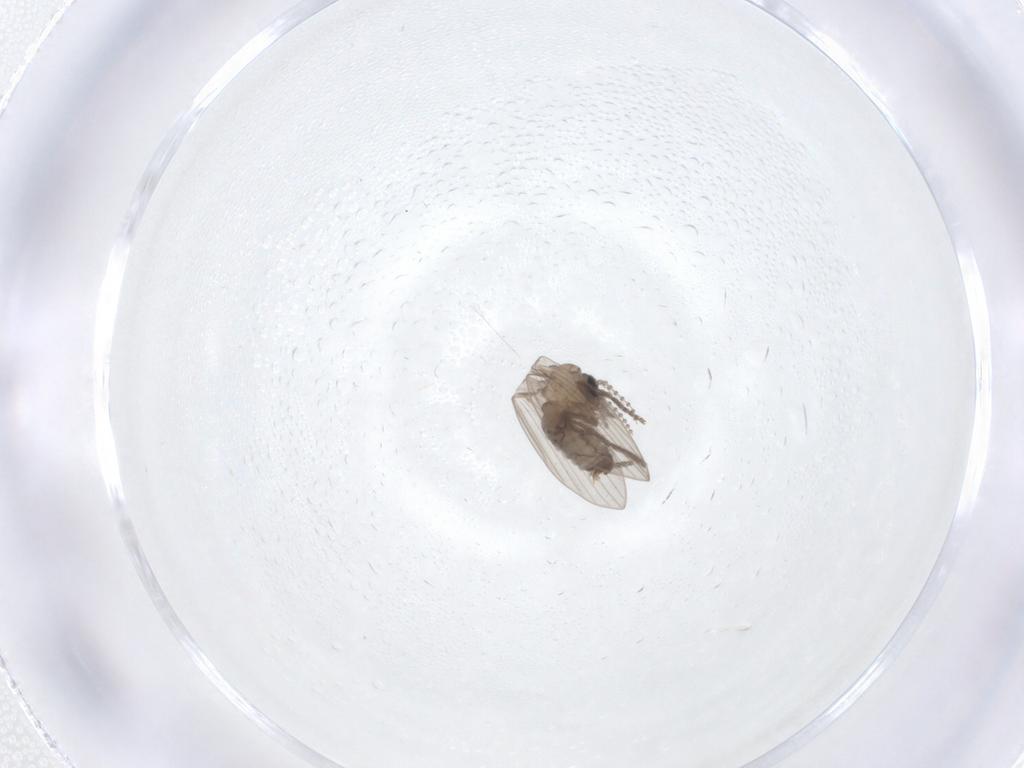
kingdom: Animalia
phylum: Arthropoda
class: Insecta
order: Diptera
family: Psychodidae
